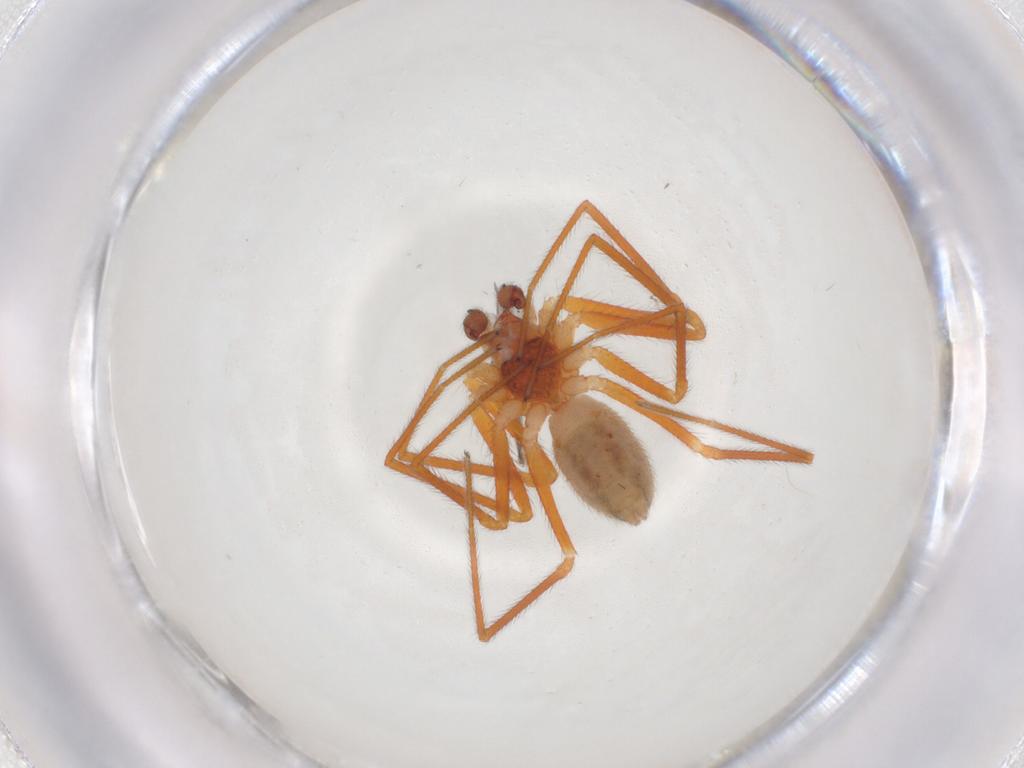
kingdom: Animalia
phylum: Arthropoda
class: Arachnida
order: Araneae
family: Linyphiidae
